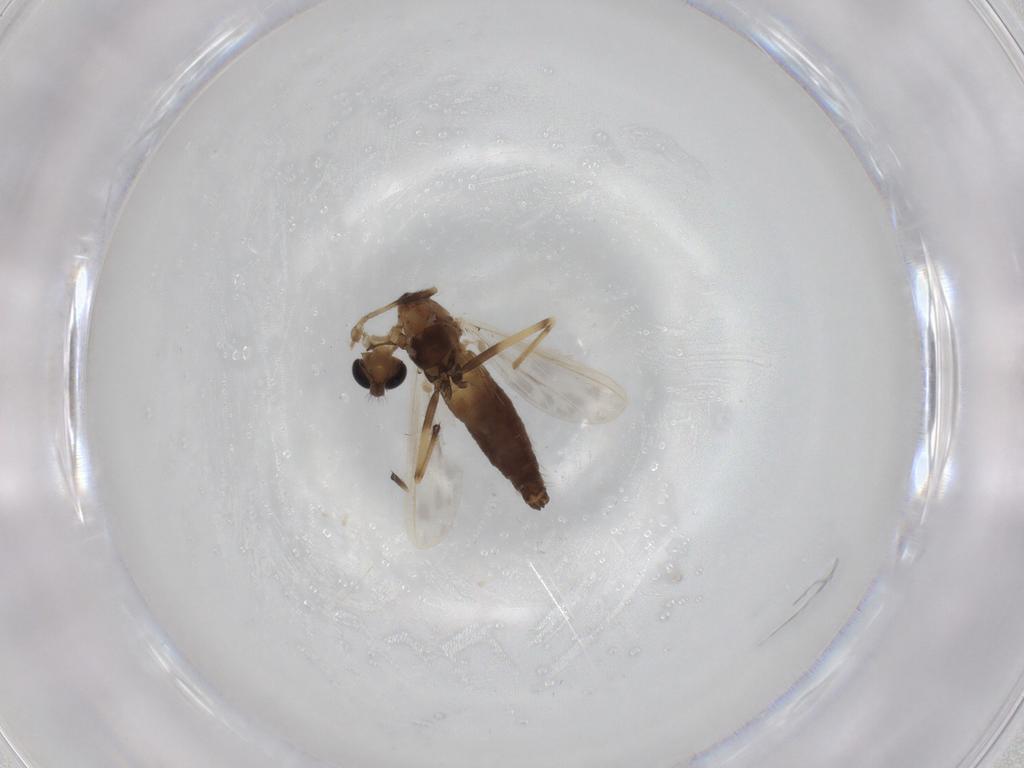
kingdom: Animalia
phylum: Arthropoda
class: Insecta
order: Diptera
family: Chironomidae
